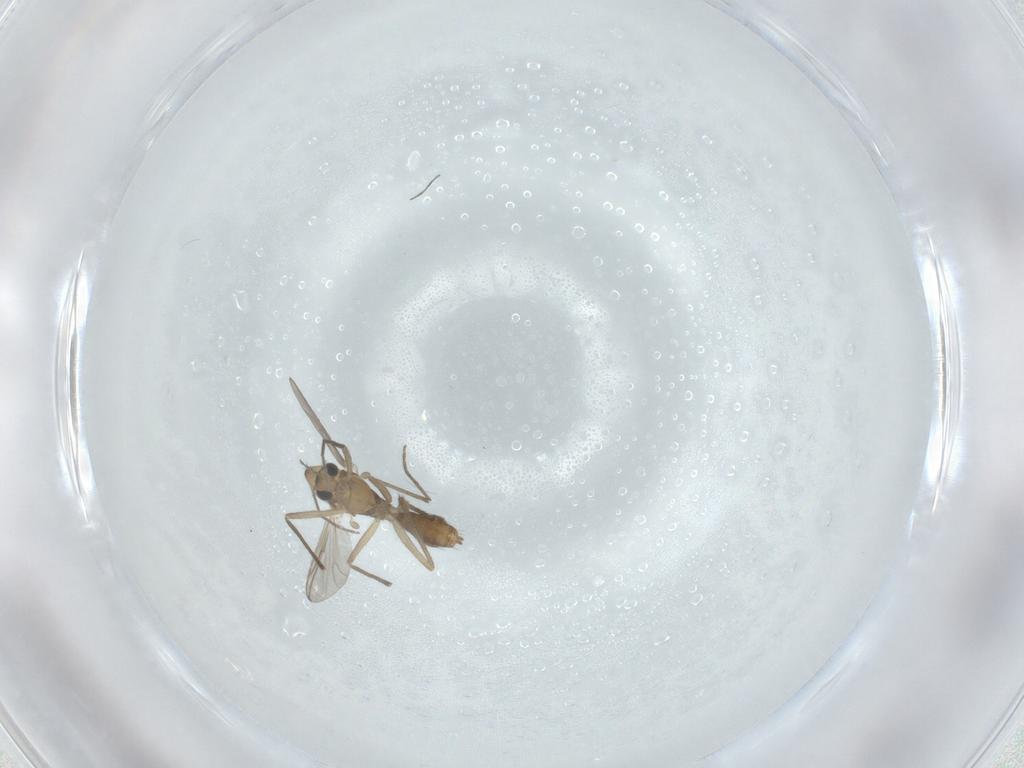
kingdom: Animalia
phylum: Arthropoda
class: Insecta
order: Diptera
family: Chironomidae
